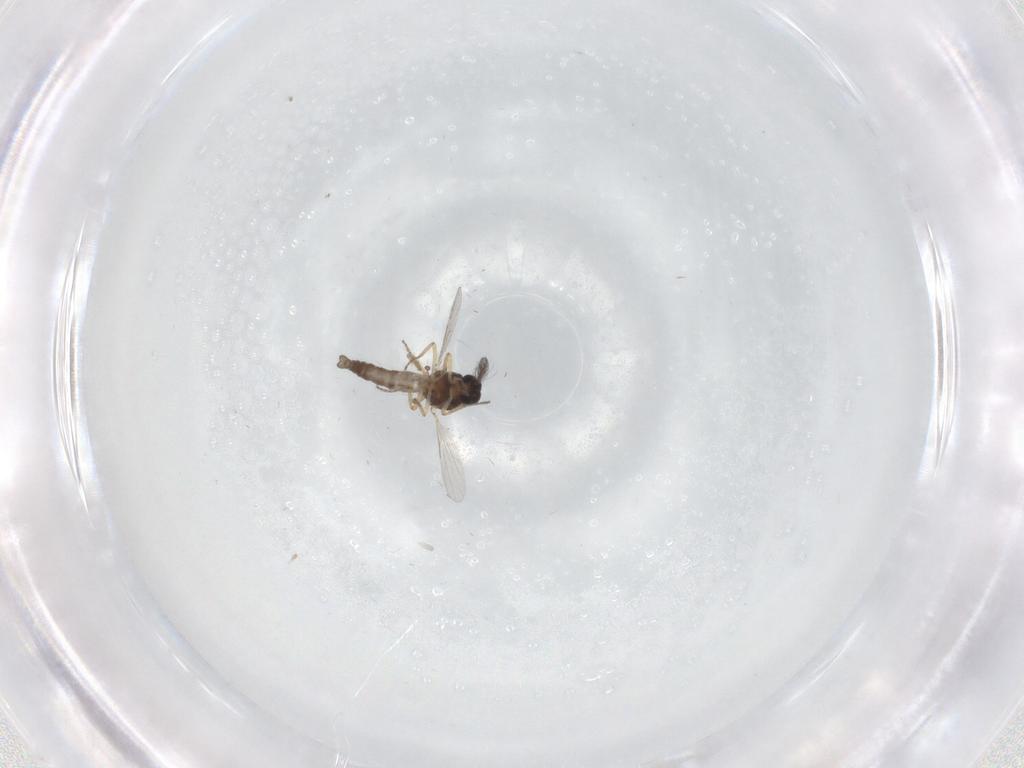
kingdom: Animalia
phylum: Arthropoda
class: Insecta
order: Diptera
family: Ceratopogonidae
